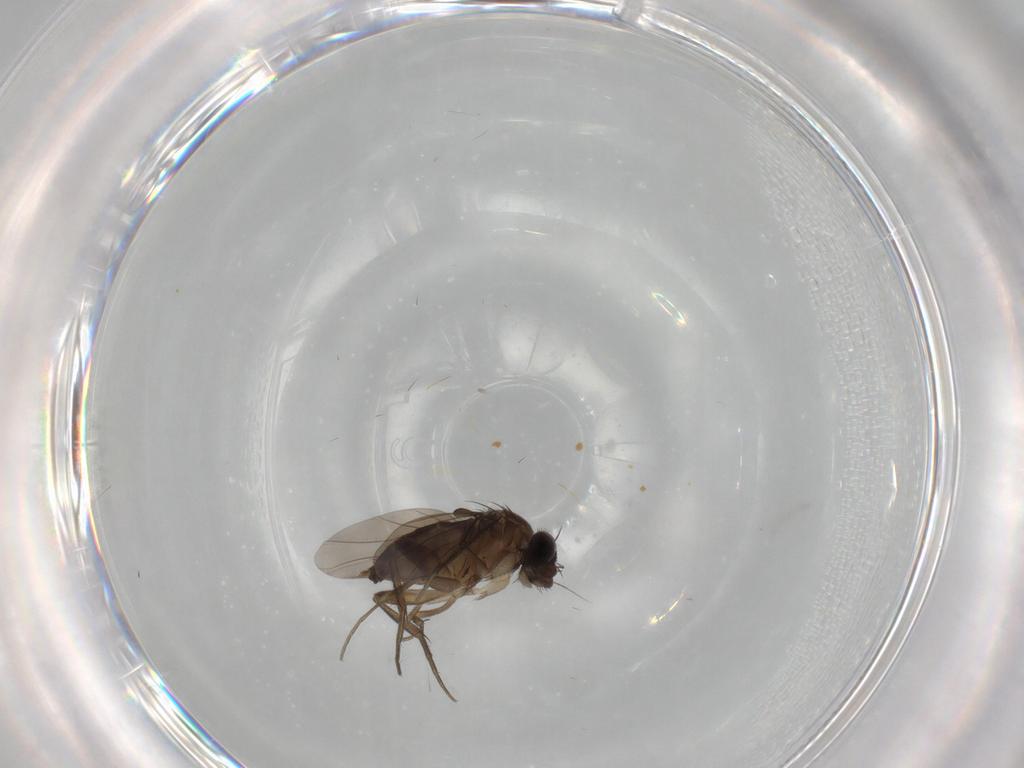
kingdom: Animalia
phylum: Arthropoda
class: Insecta
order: Diptera
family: Phoridae
